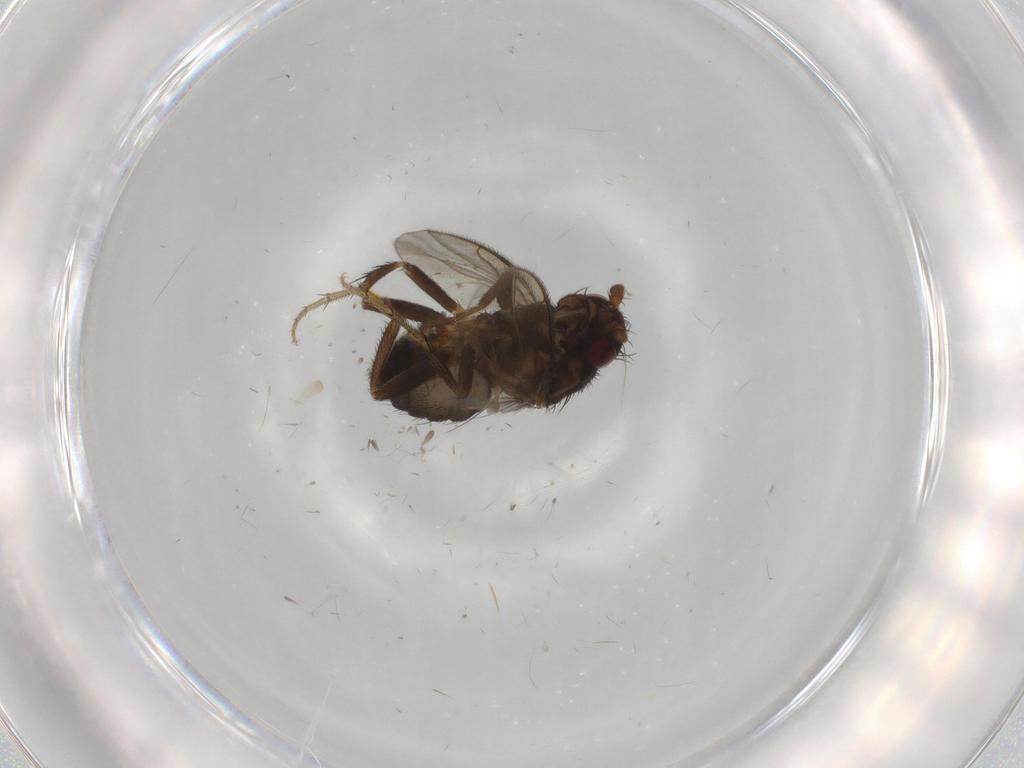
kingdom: Animalia
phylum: Arthropoda
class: Insecta
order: Diptera
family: Sphaeroceridae
